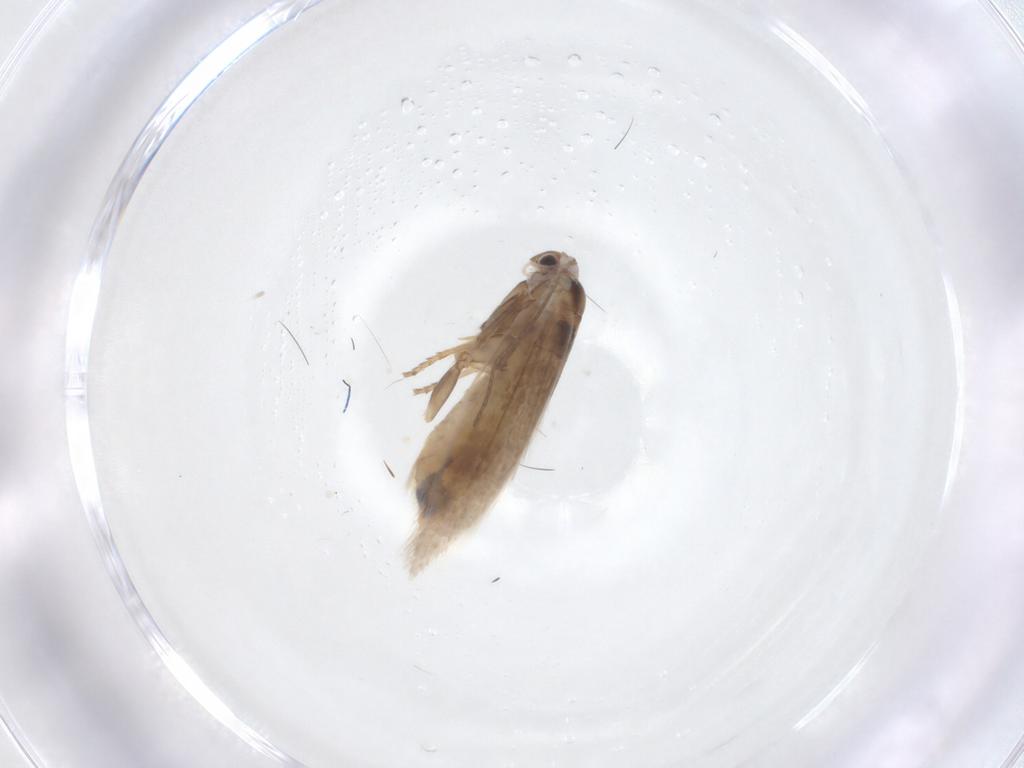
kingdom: Animalia
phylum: Arthropoda
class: Insecta
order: Lepidoptera
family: Bucculatricidae
